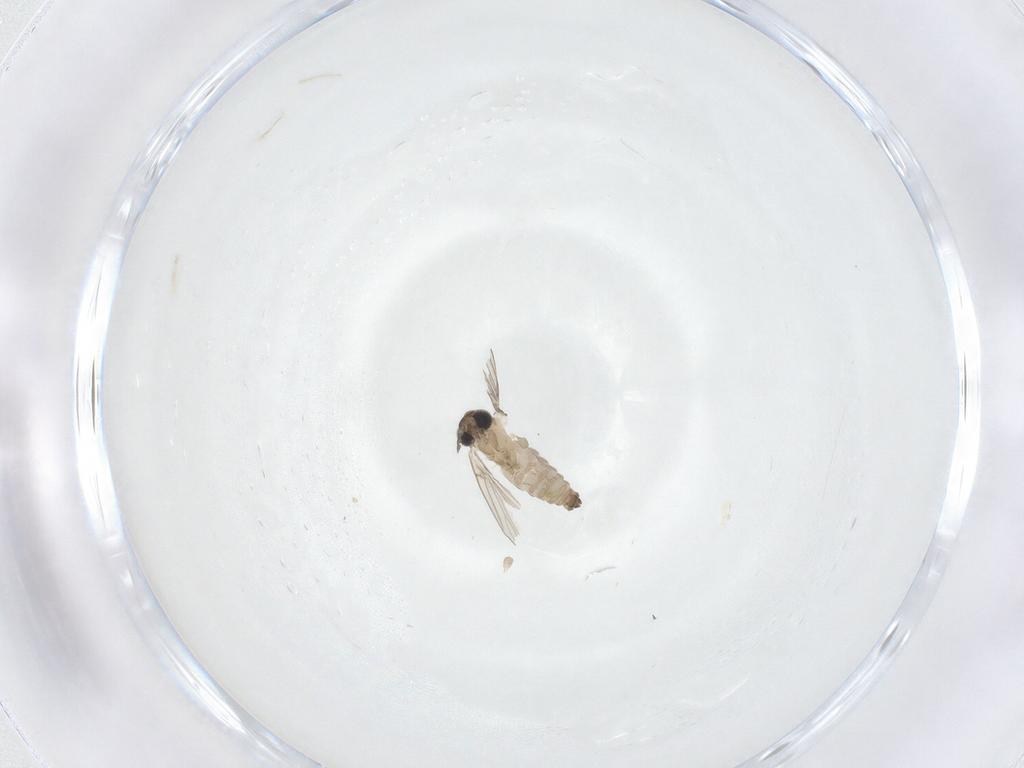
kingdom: Animalia
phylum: Arthropoda
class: Insecta
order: Diptera
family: Psychodidae
